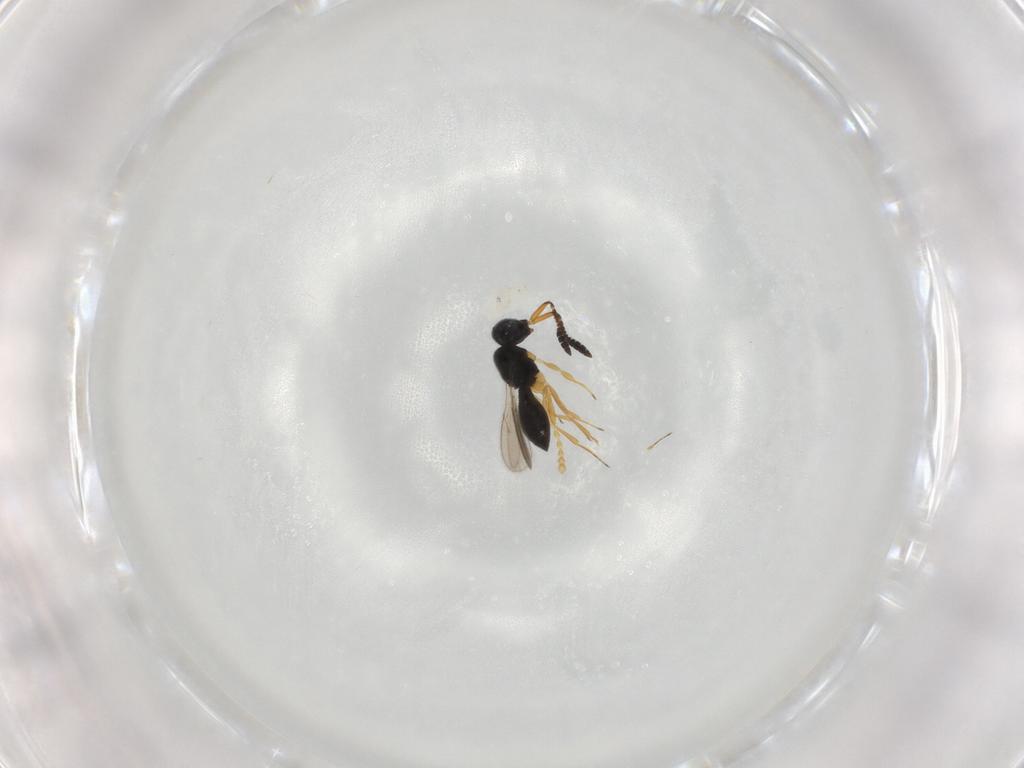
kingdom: Animalia
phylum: Arthropoda
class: Insecta
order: Hymenoptera
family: Scelionidae
